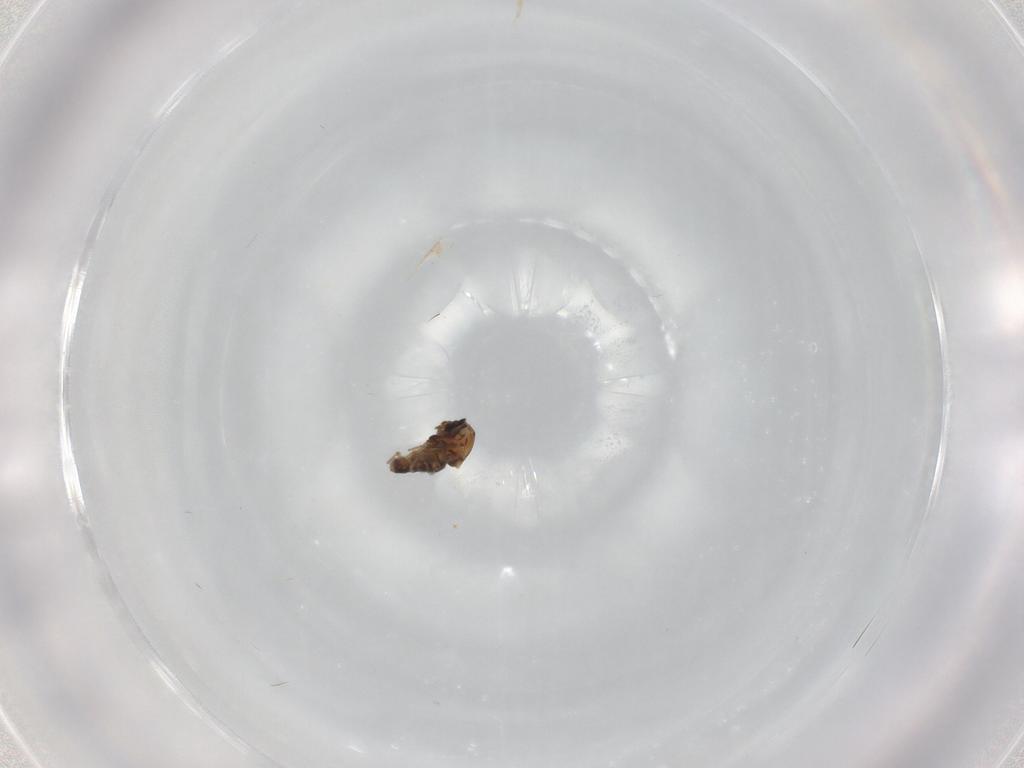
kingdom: Animalia
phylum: Arthropoda
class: Insecta
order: Diptera
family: Ceratopogonidae
